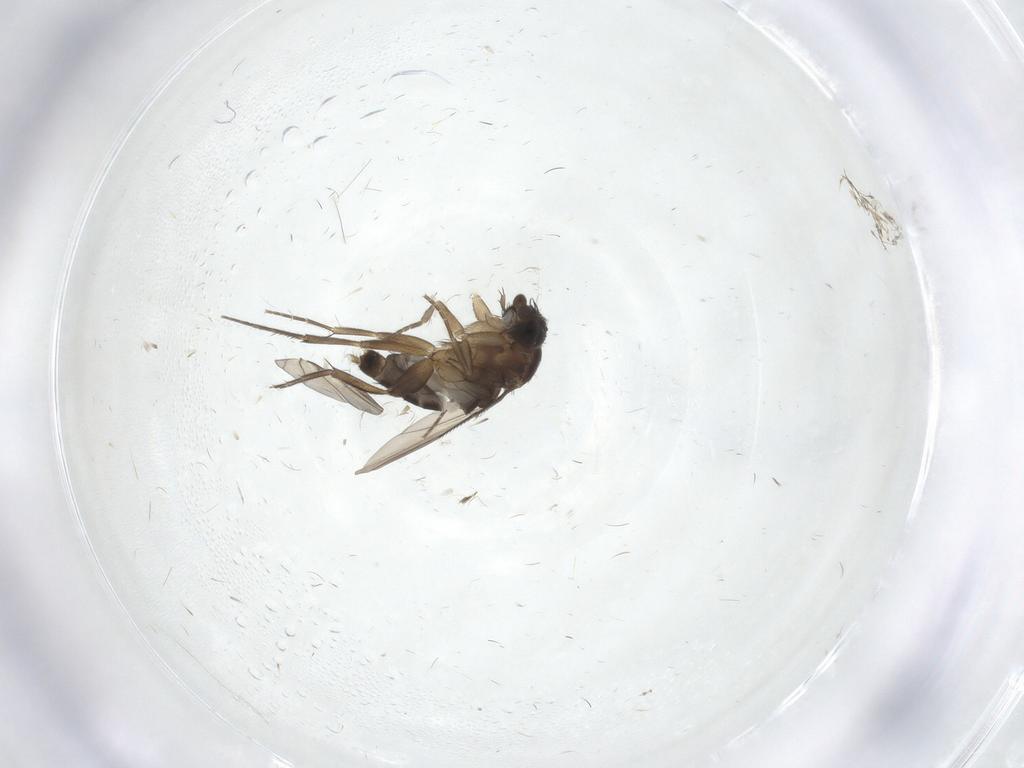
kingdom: Animalia
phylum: Arthropoda
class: Insecta
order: Diptera
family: Phoridae
